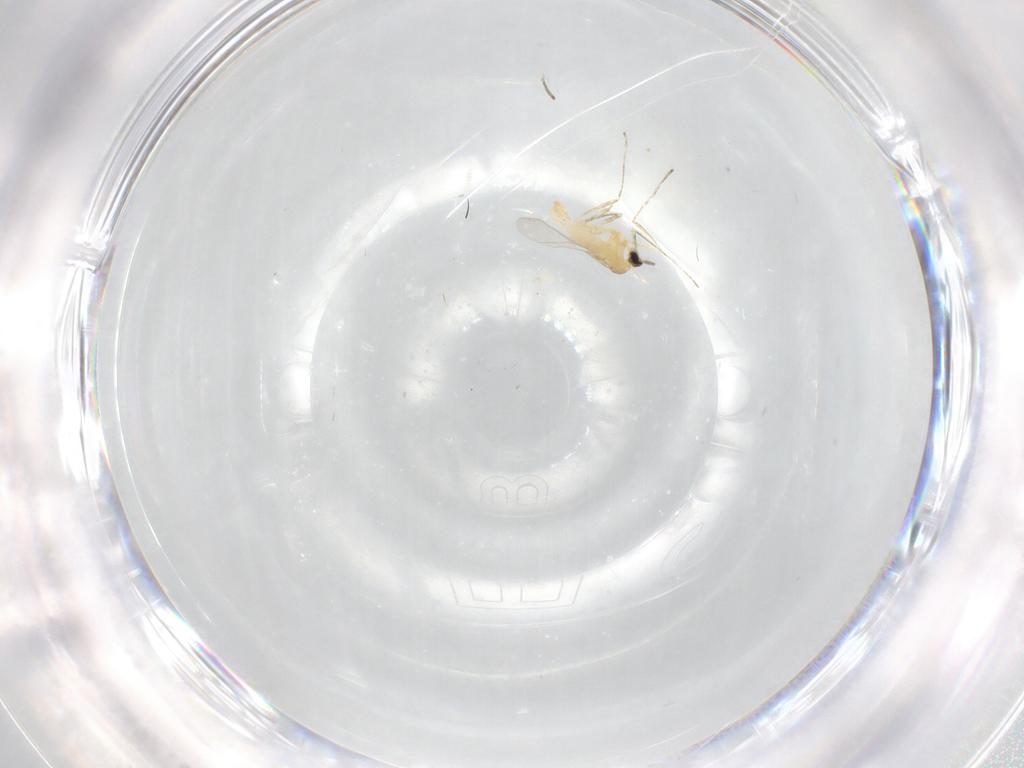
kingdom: Animalia
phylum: Arthropoda
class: Insecta
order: Diptera
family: Cecidomyiidae
